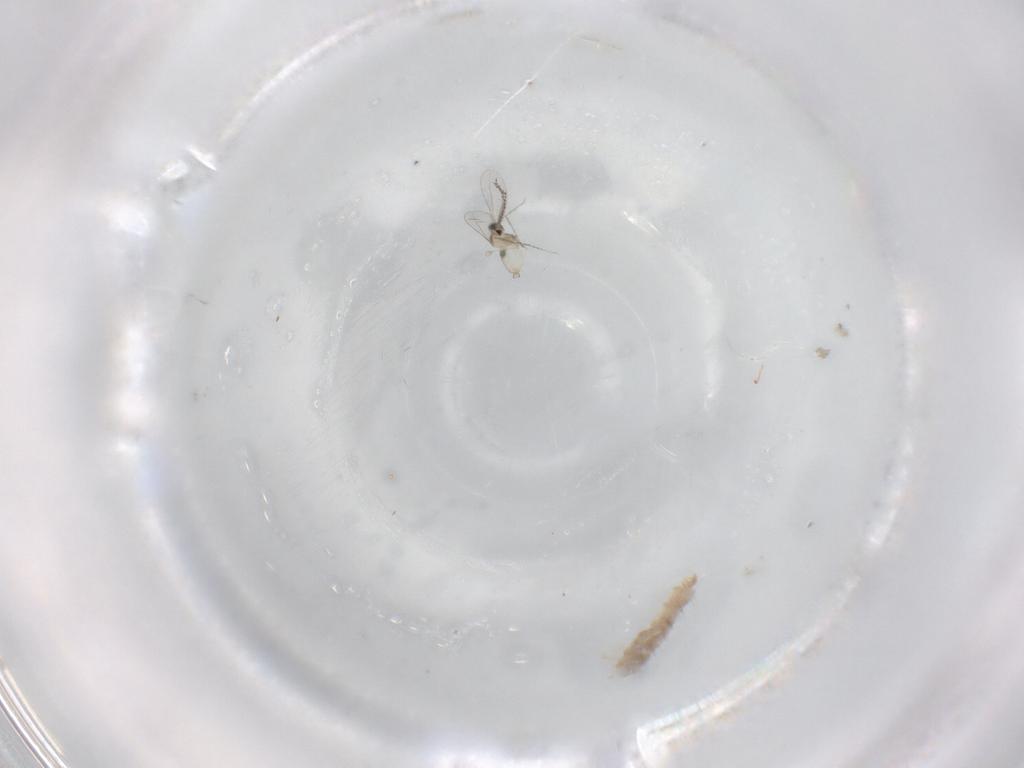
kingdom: Animalia
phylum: Arthropoda
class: Insecta
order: Diptera
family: Cecidomyiidae
